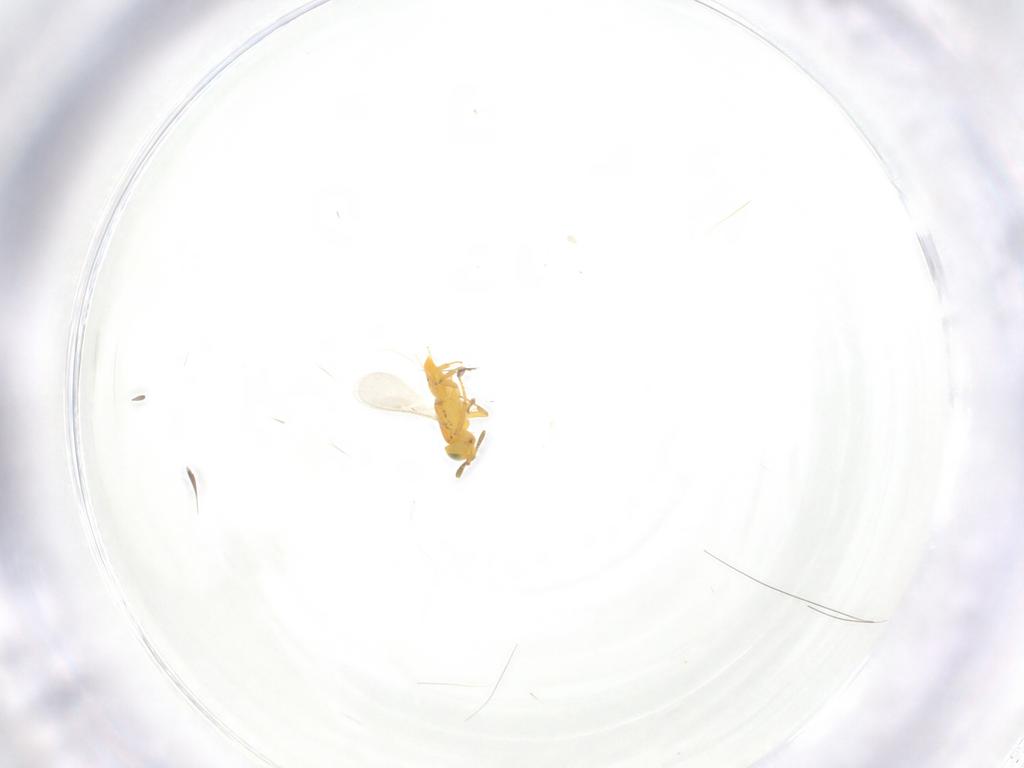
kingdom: Animalia
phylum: Arthropoda
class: Insecta
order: Hymenoptera
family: Encyrtidae
